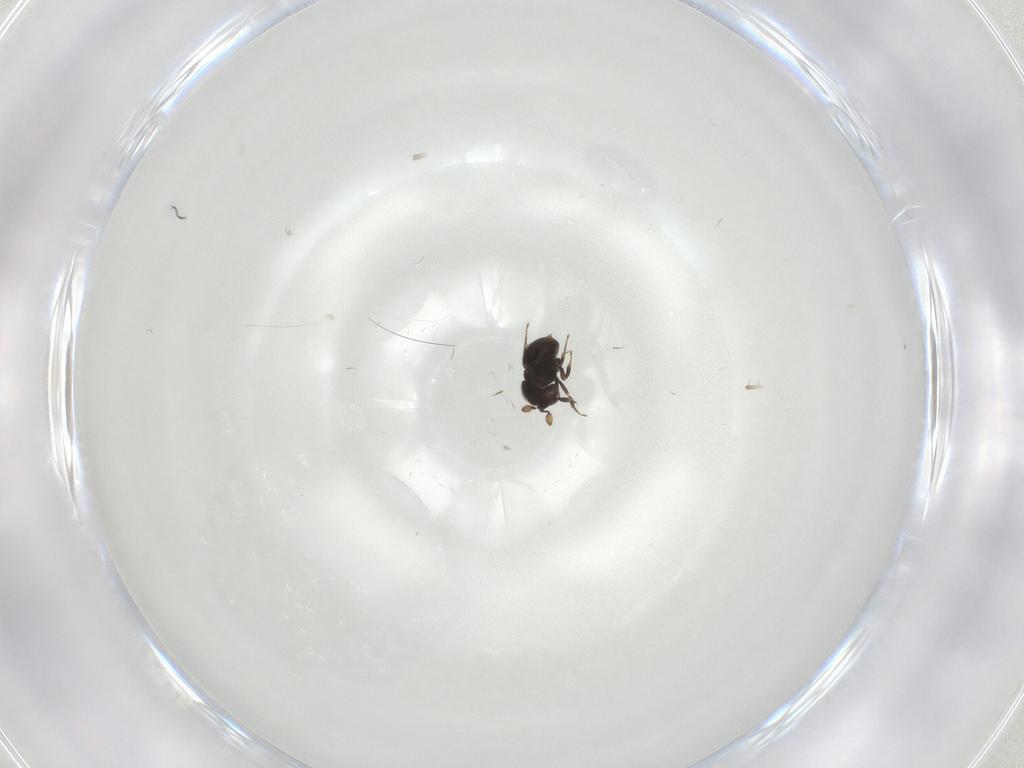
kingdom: Animalia
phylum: Arthropoda
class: Insecta
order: Hymenoptera
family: Scelionidae
